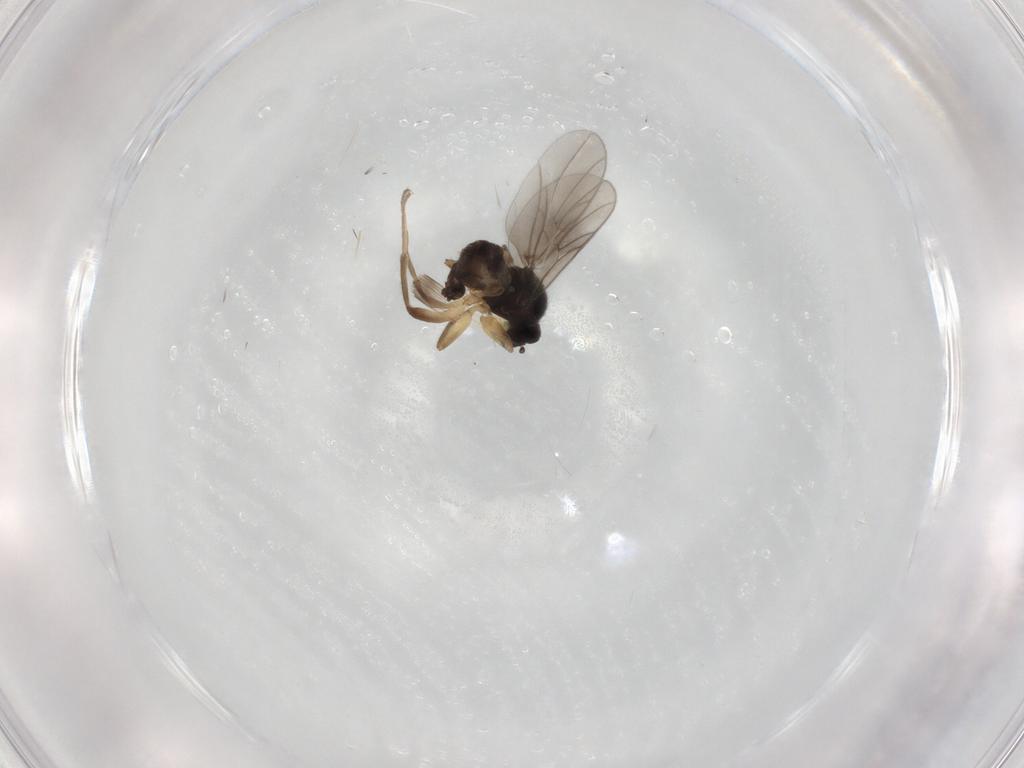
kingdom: Animalia
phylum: Arthropoda
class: Insecta
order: Diptera
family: Hybotidae
